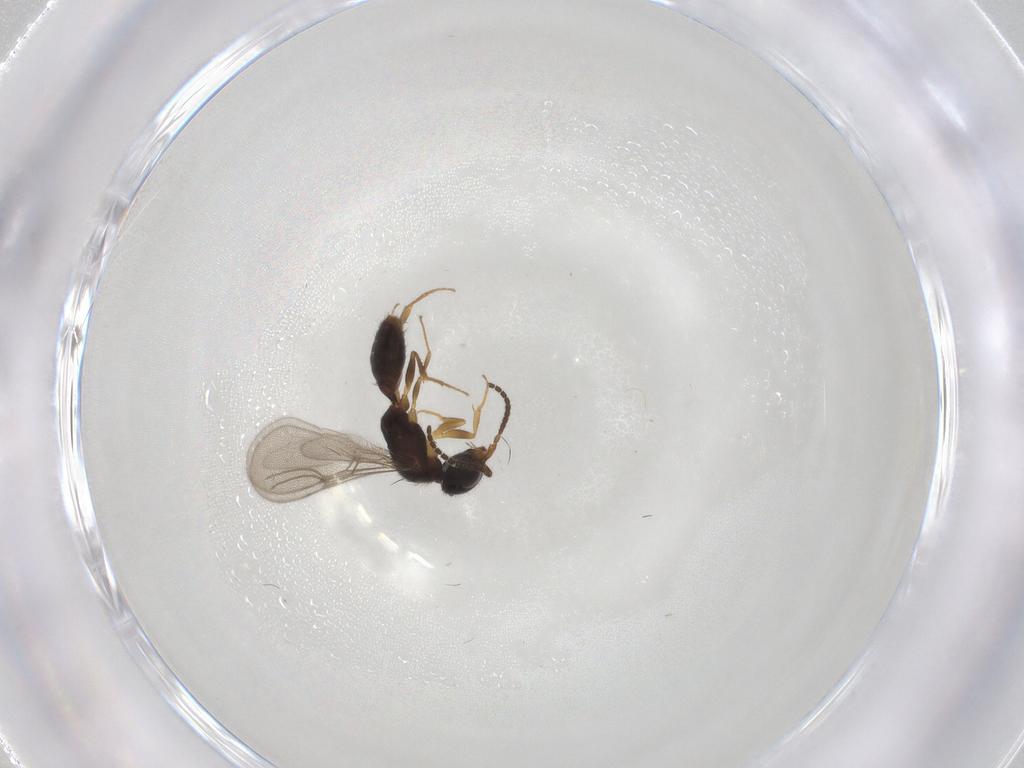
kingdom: Animalia
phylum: Arthropoda
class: Insecta
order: Hymenoptera
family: Bethylidae
